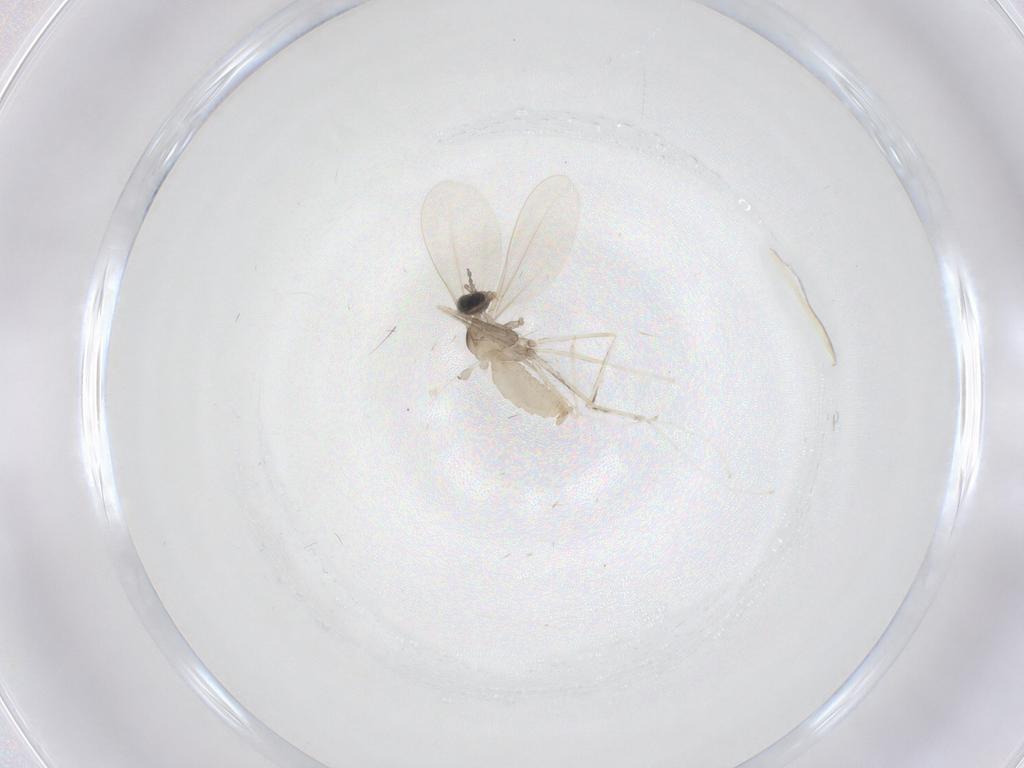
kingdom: Animalia
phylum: Arthropoda
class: Insecta
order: Diptera
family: Cecidomyiidae
